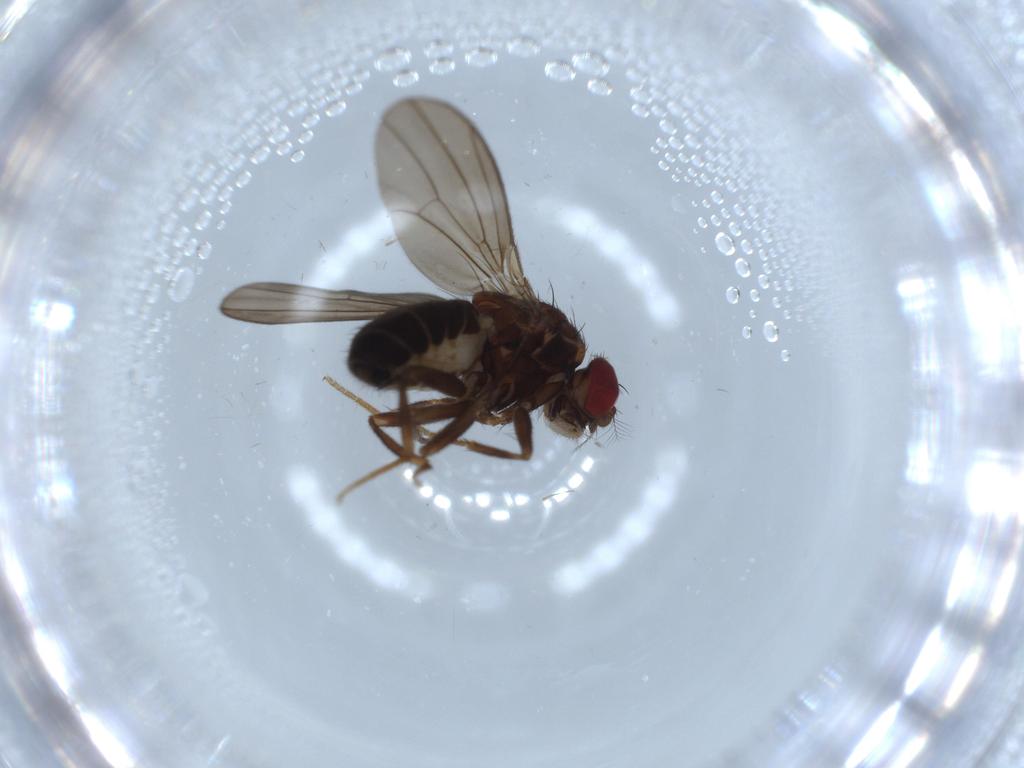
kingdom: Animalia
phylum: Arthropoda
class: Insecta
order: Diptera
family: Drosophilidae
